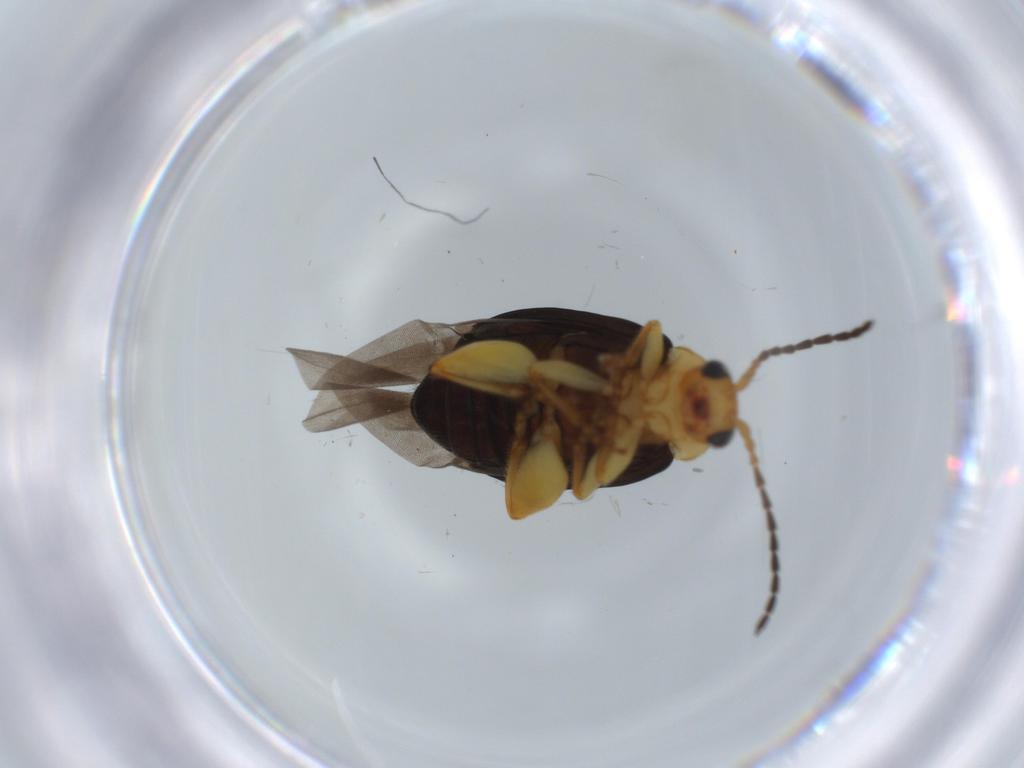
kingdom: Animalia
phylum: Arthropoda
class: Insecta
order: Coleoptera
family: Chrysomelidae
